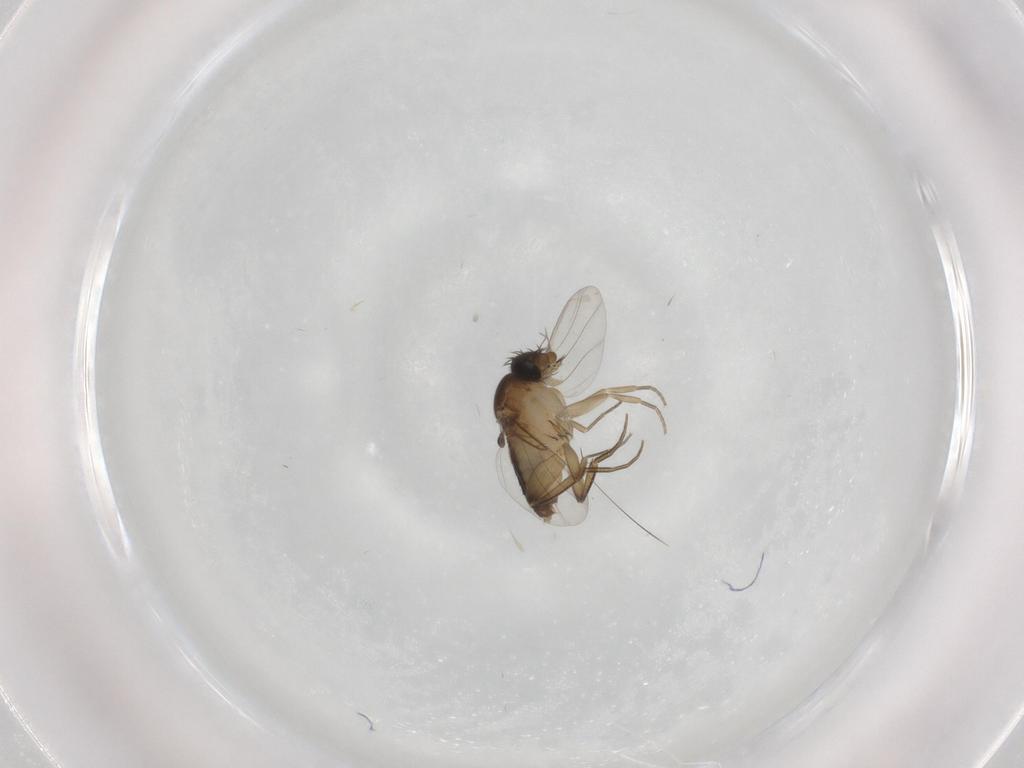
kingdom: Animalia
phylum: Arthropoda
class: Insecta
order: Diptera
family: Phoridae
